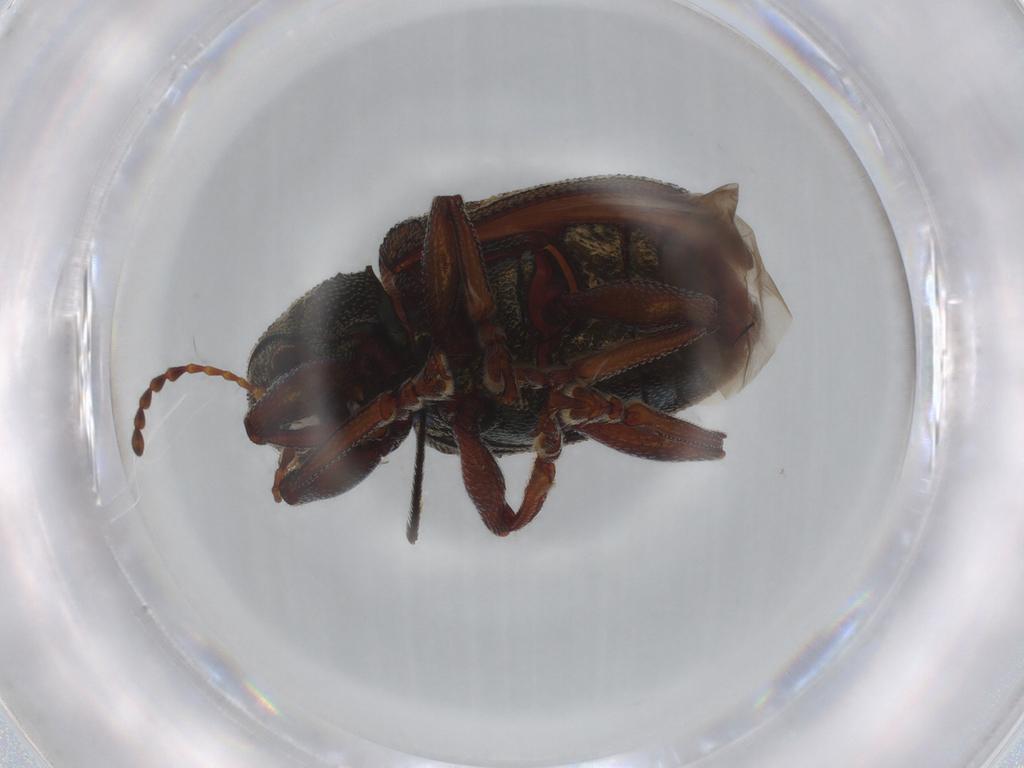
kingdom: Animalia
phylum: Arthropoda
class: Insecta
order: Coleoptera
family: Chrysomelidae
